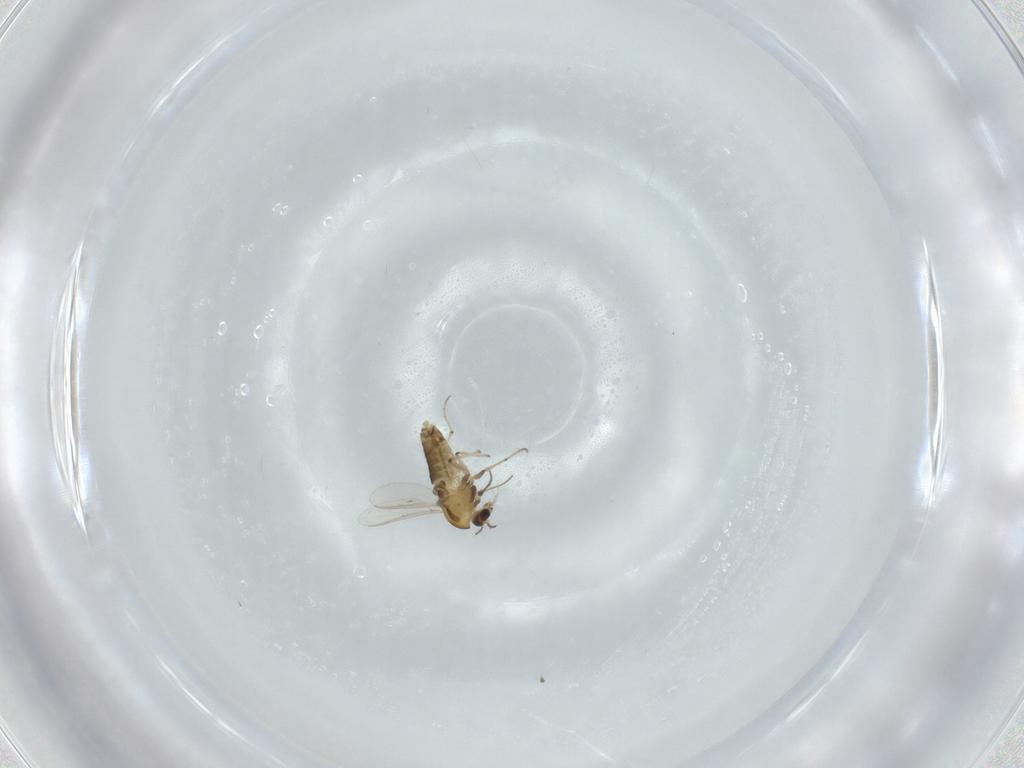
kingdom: Animalia
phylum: Arthropoda
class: Insecta
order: Diptera
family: Chironomidae
